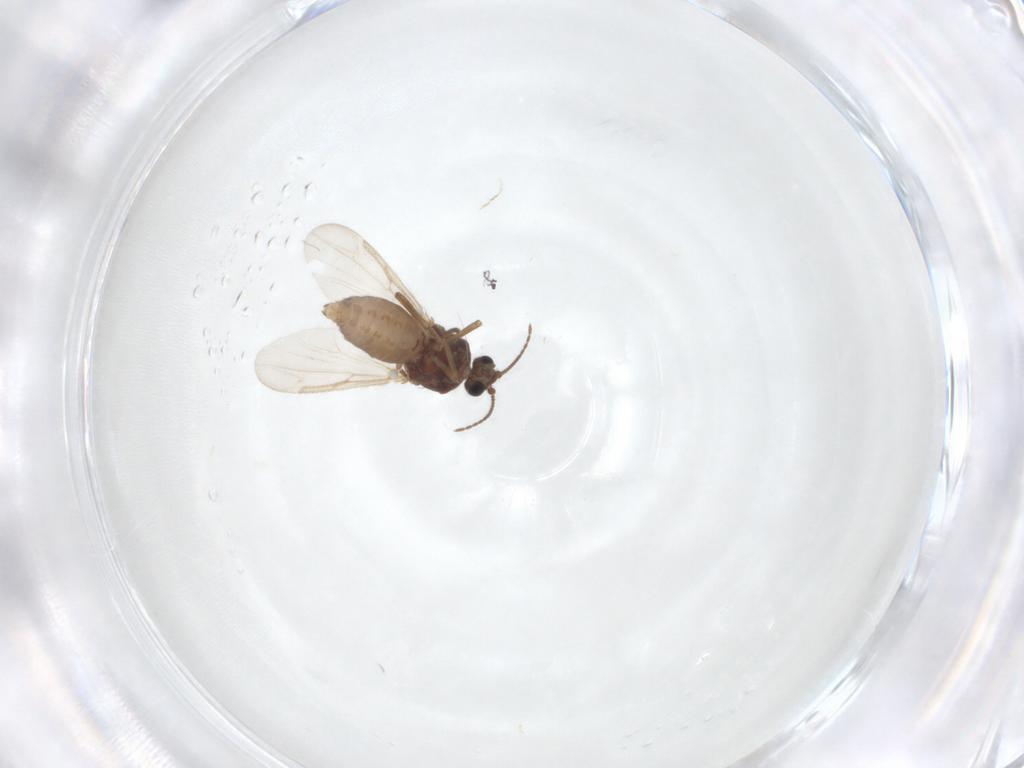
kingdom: Animalia
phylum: Arthropoda
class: Insecta
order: Diptera
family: Ceratopogonidae
